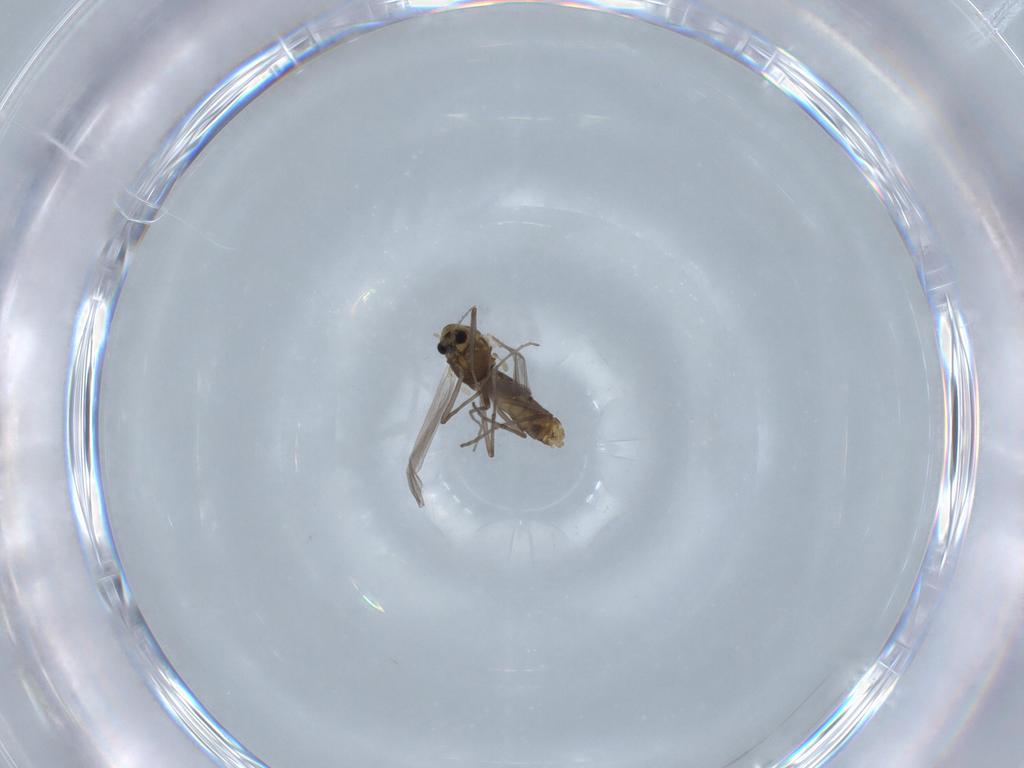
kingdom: Animalia
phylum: Arthropoda
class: Insecta
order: Diptera
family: Chironomidae
